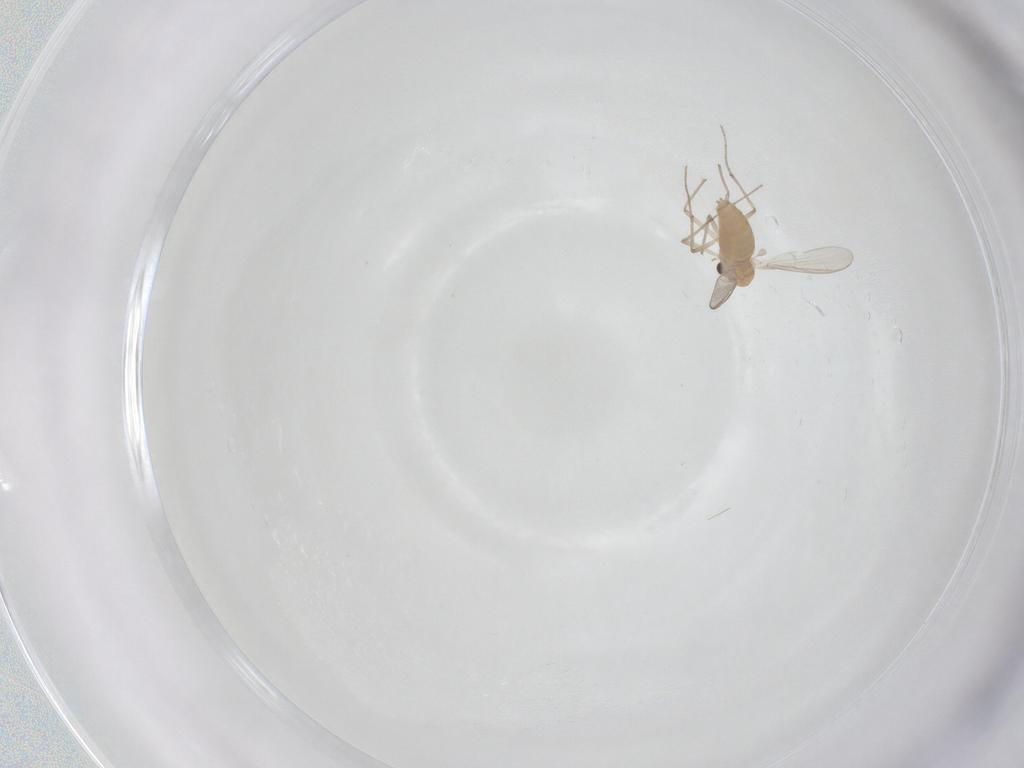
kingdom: Animalia
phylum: Arthropoda
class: Insecta
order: Diptera
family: Chironomidae
